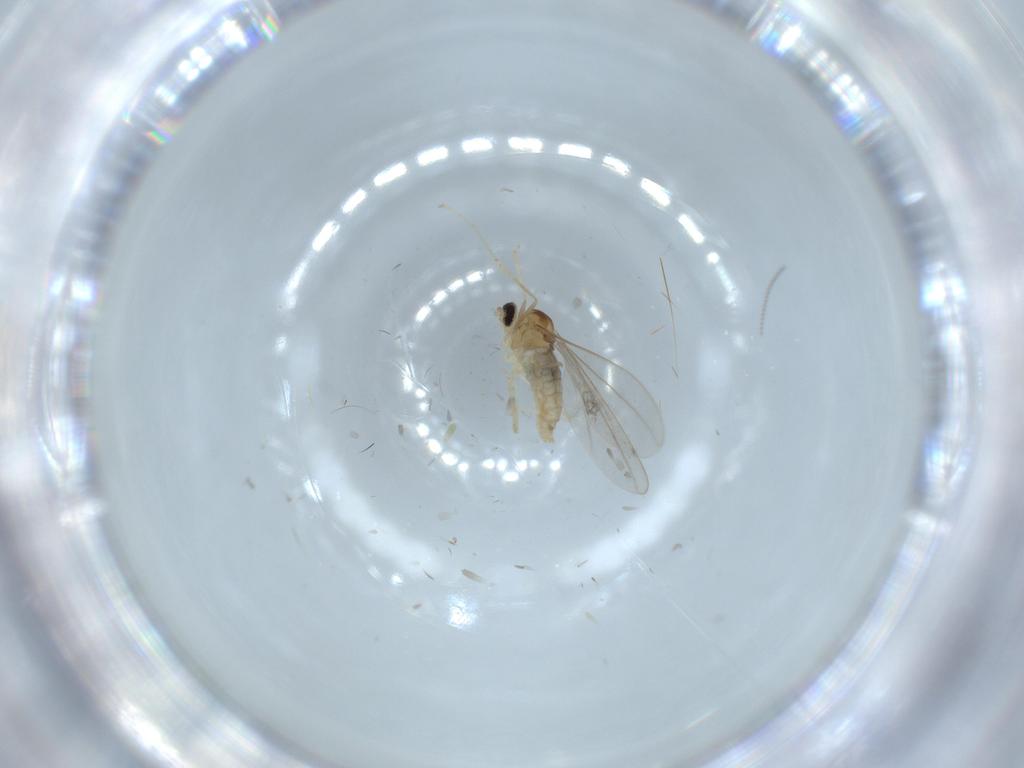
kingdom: Animalia
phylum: Arthropoda
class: Insecta
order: Diptera
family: Cecidomyiidae
